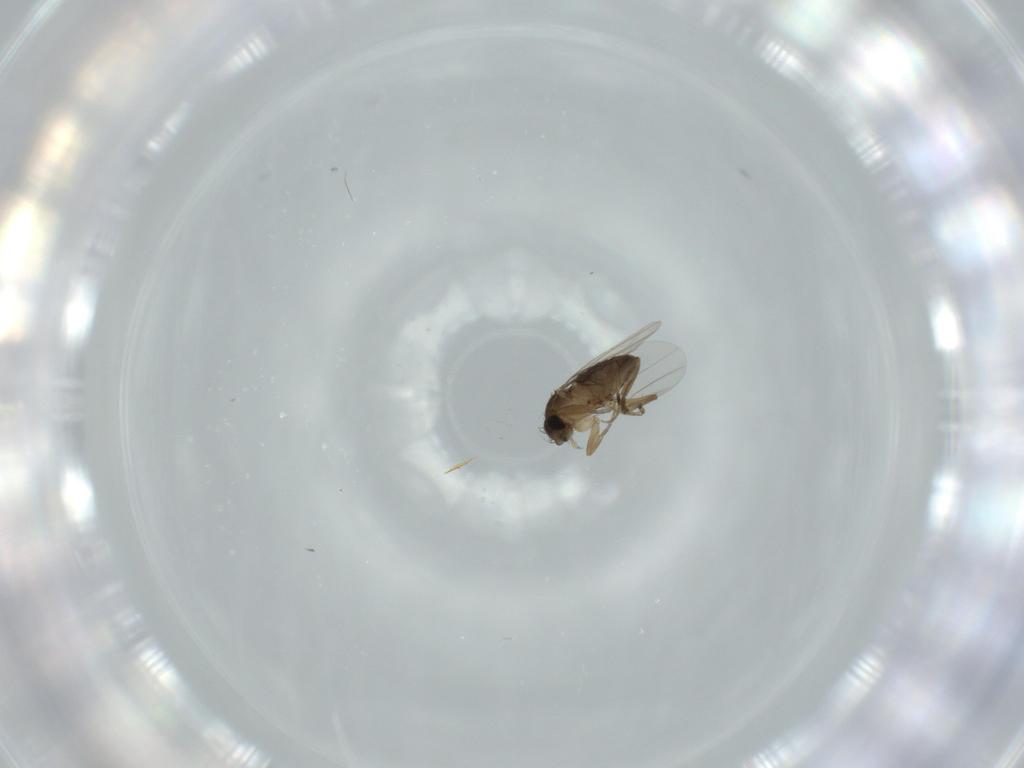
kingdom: Animalia
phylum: Arthropoda
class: Insecta
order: Diptera
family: Phoridae
